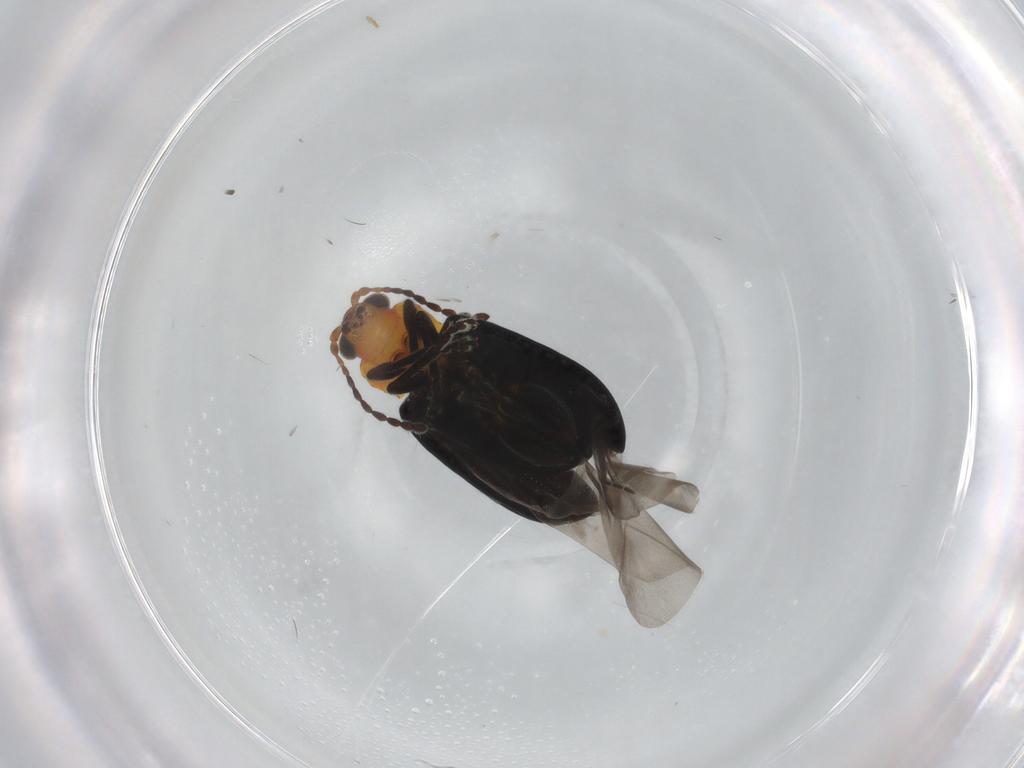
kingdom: Animalia
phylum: Arthropoda
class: Insecta
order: Coleoptera
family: Chrysomelidae
